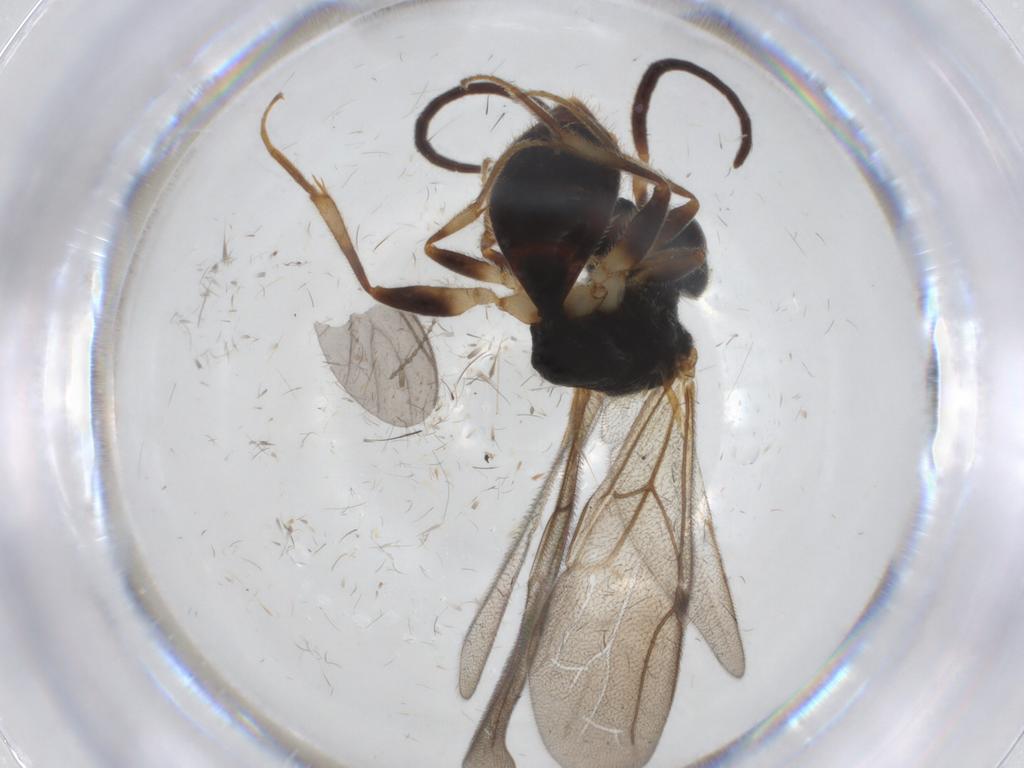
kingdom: Animalia
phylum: Arthropoda
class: Insecta
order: Hymenoptera
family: Bethylidae
